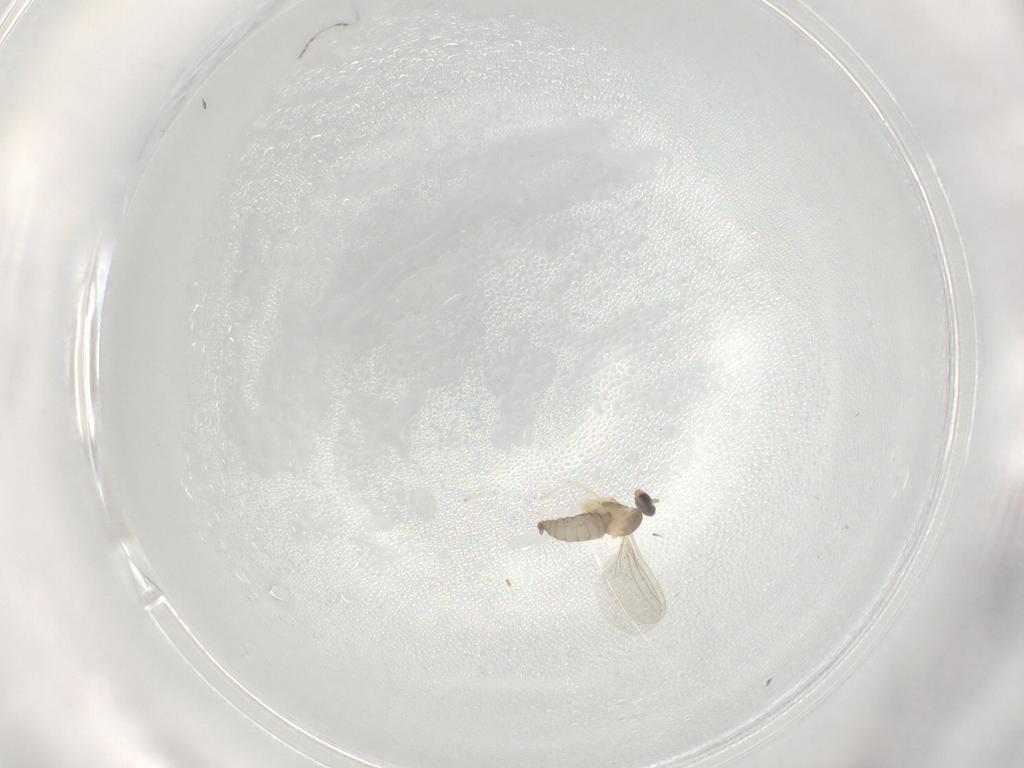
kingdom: Animalia
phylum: Arthropoda
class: Insecta
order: Diptera
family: Cecidomyiidae
